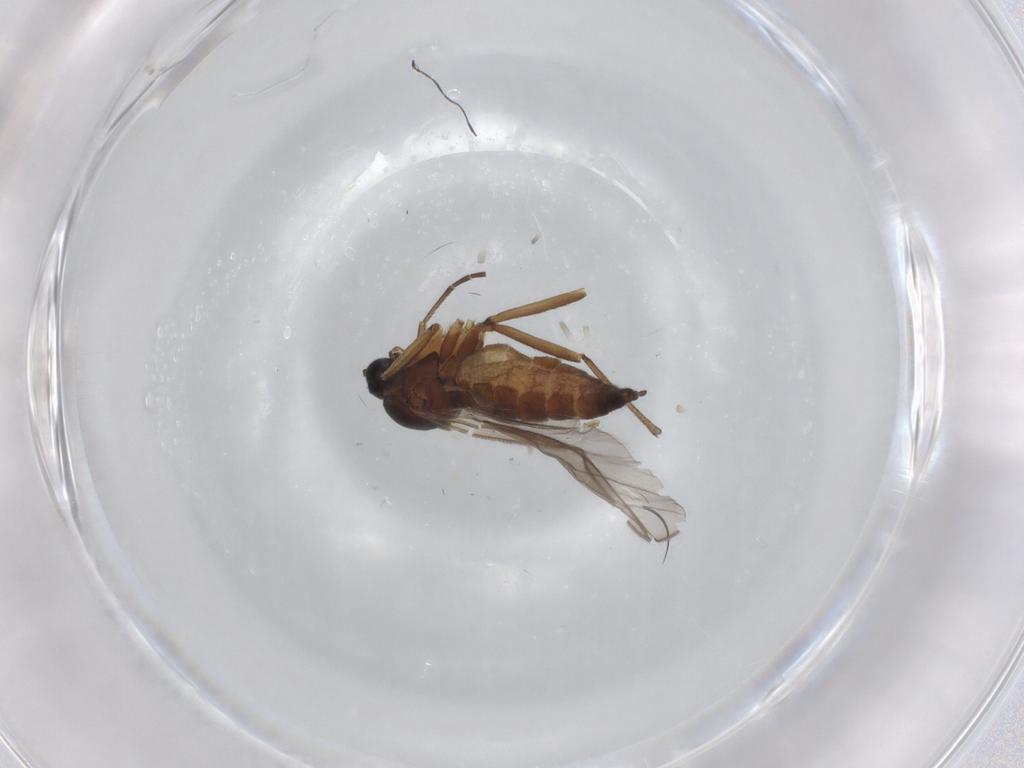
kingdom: Animalia
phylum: Arthropoda
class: Insecta
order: Diptera
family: Sciaridae
